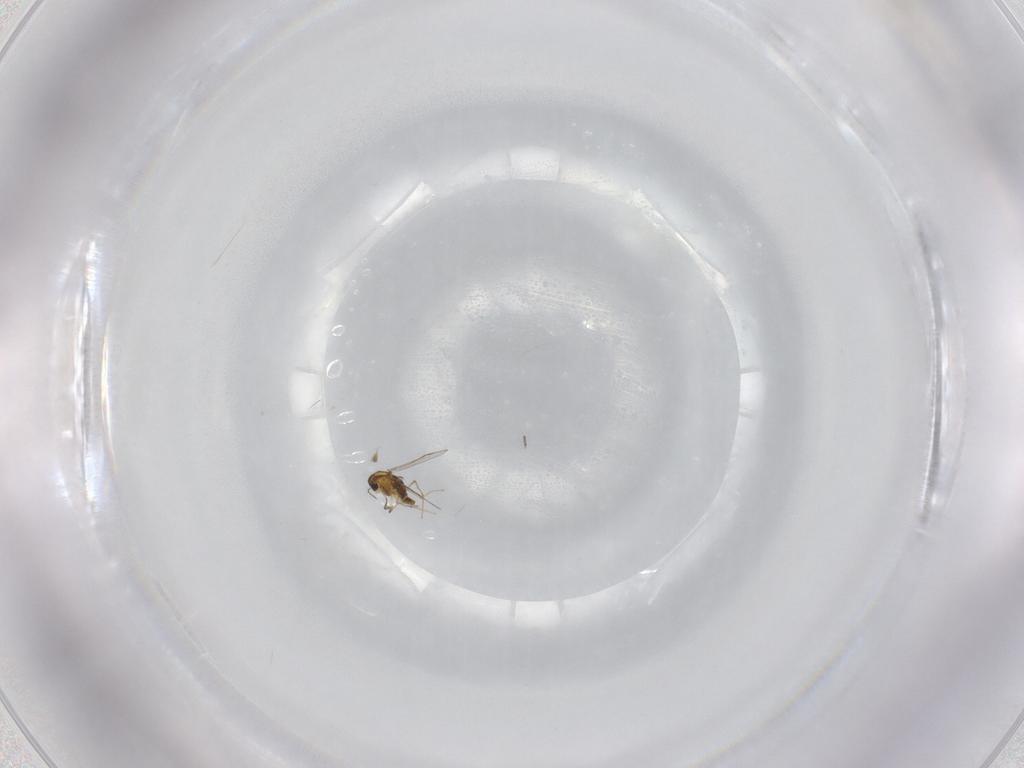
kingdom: Animalia
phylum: Arthropoda
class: Insecta
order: Diptera
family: Chironomidae
